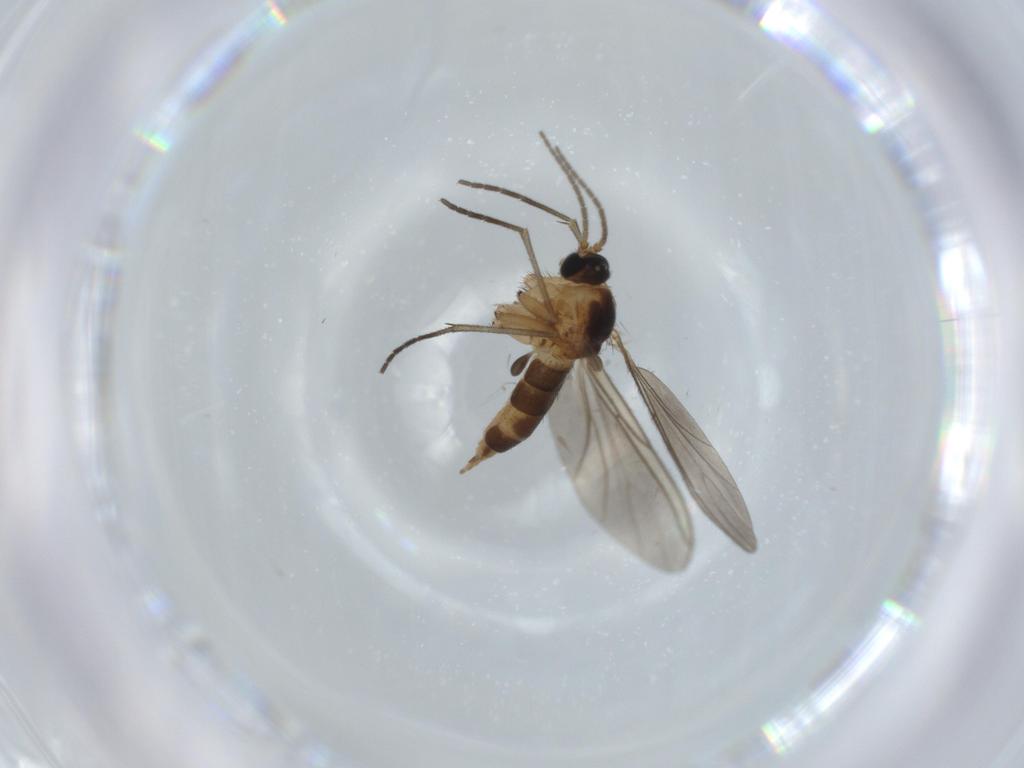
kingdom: Animalia
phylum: Arthropoda
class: Insecta
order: Diptera
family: Sciaridae
